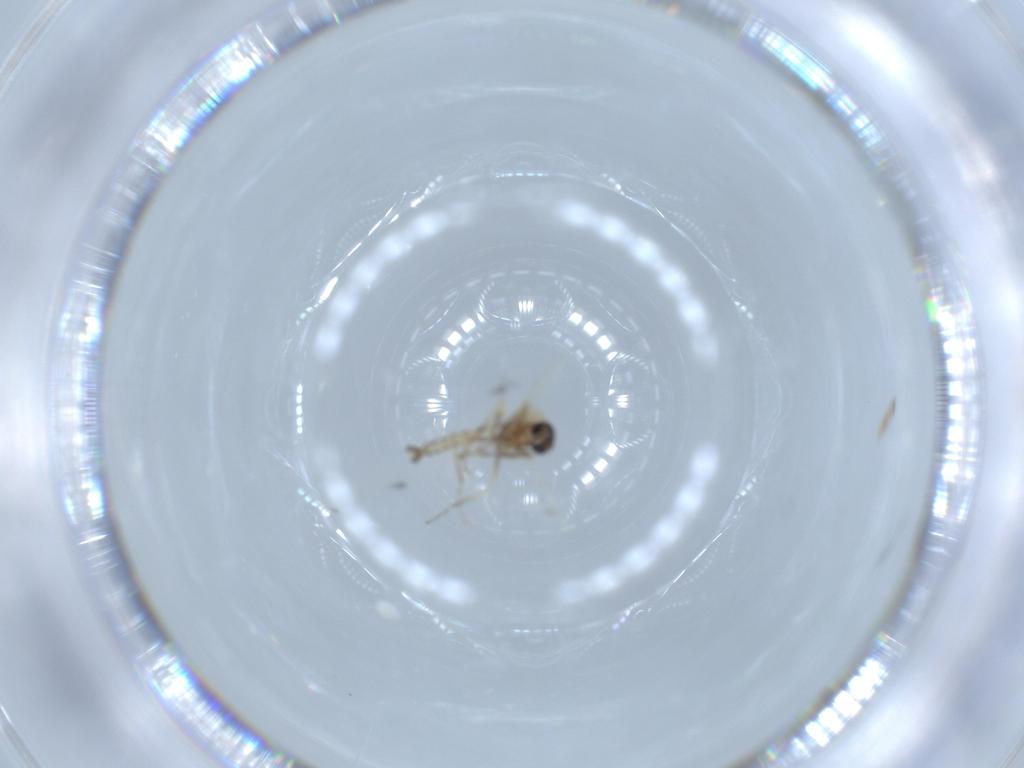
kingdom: Animalia
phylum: Arthropoda
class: Insecta
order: Diptera
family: Ceratopogonidae
